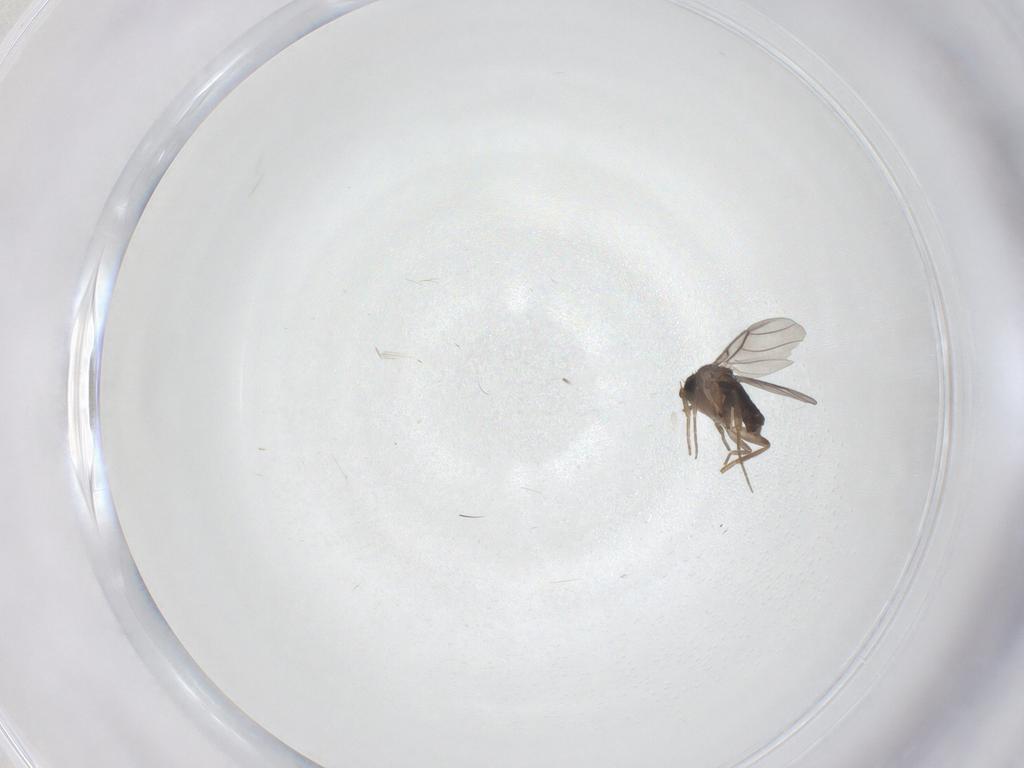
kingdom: Animalia
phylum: Arthropoda
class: Insecta
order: Diptera
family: Phoridae
